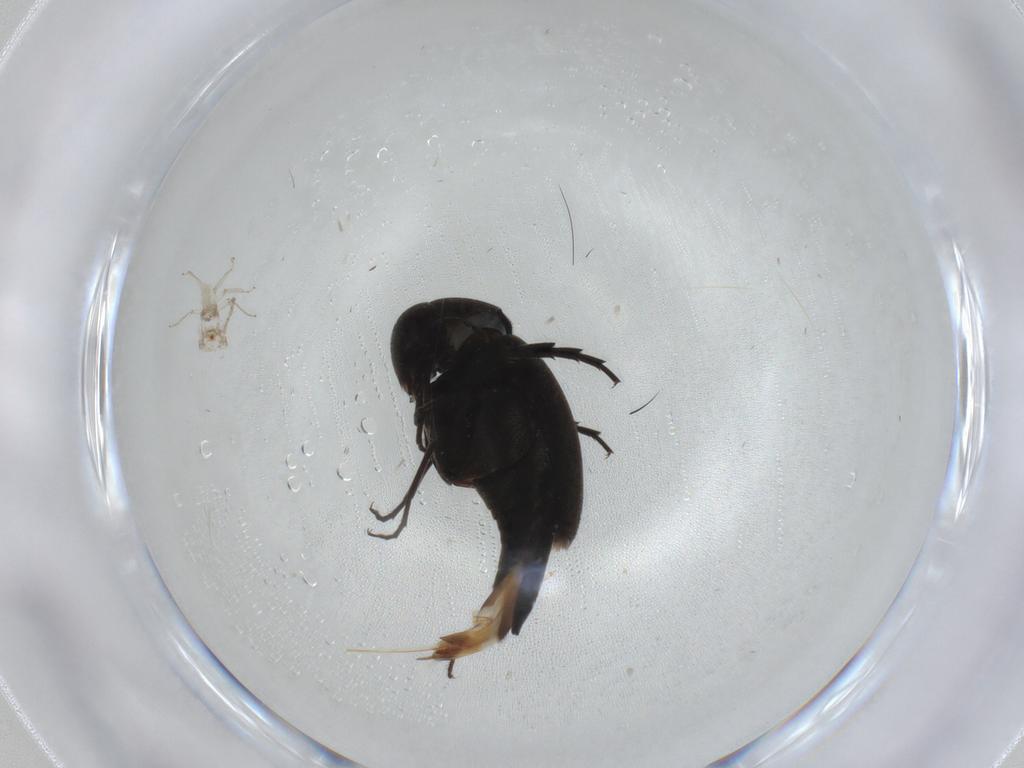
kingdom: Animalia
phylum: Arthropoda
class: Insecta
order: Coleoptera
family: Mordellidae
